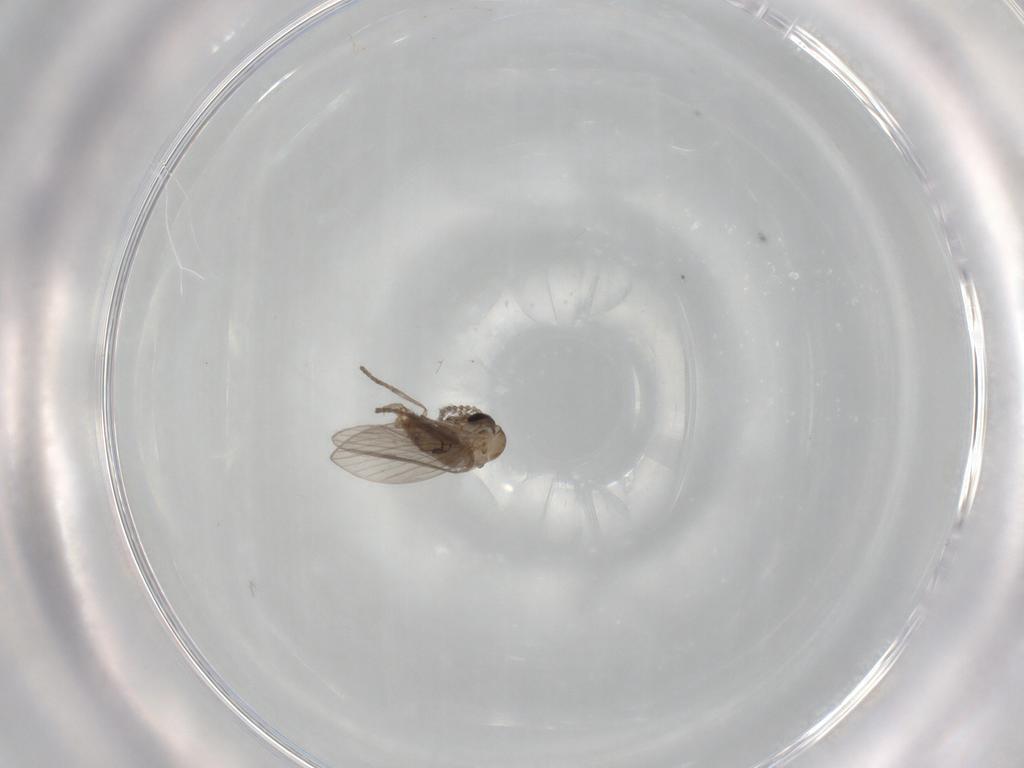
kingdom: Animalia
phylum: Arthropoda
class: Insecta
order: Diptera
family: Psychodidae
